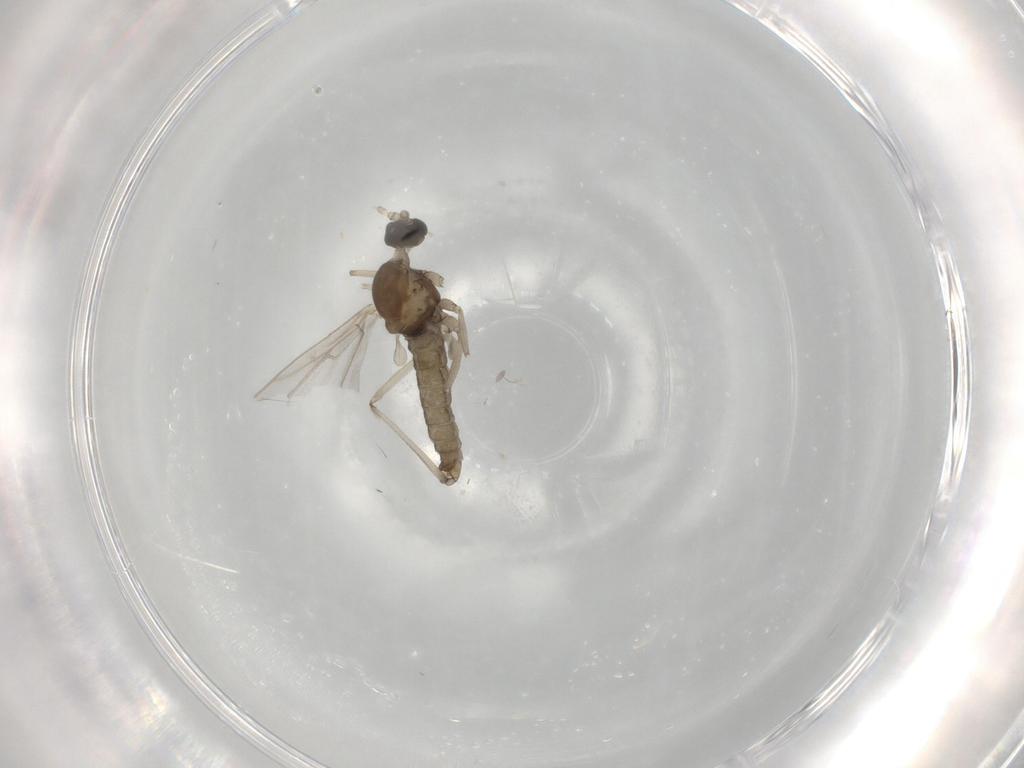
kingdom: Animalia
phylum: Arthropoda
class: Insecta
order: Diptera
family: Cecidomyiidae
